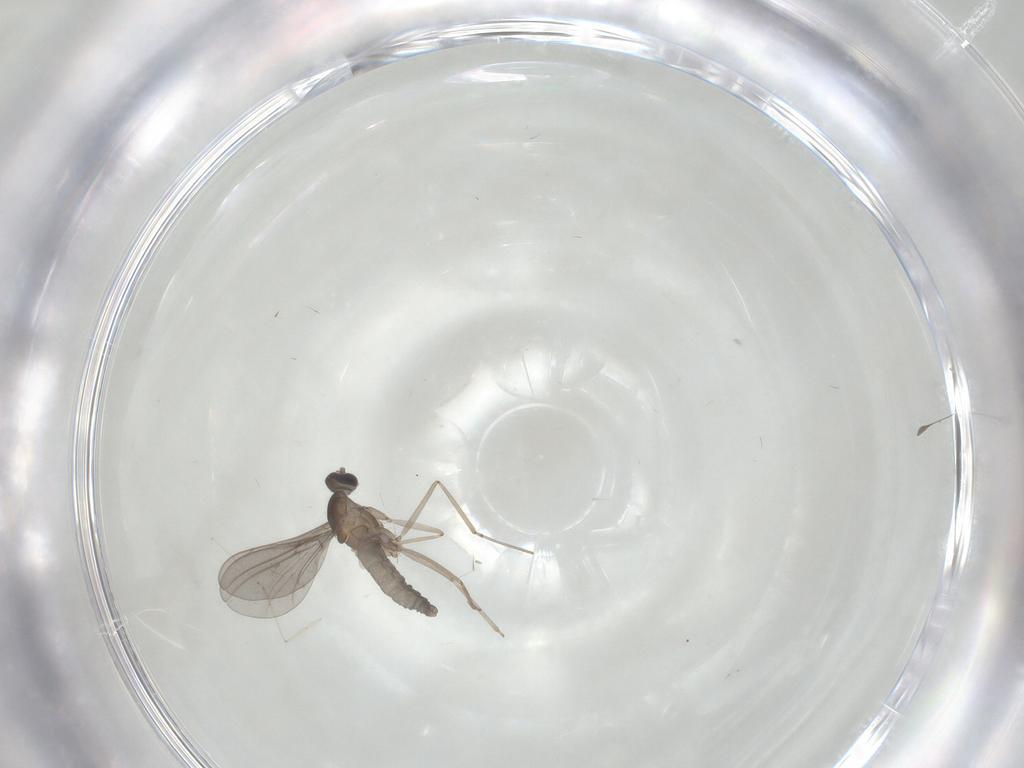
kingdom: Animalia
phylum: Arthropoda
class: Insecta
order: Diptera
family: Cecidomyiidae
